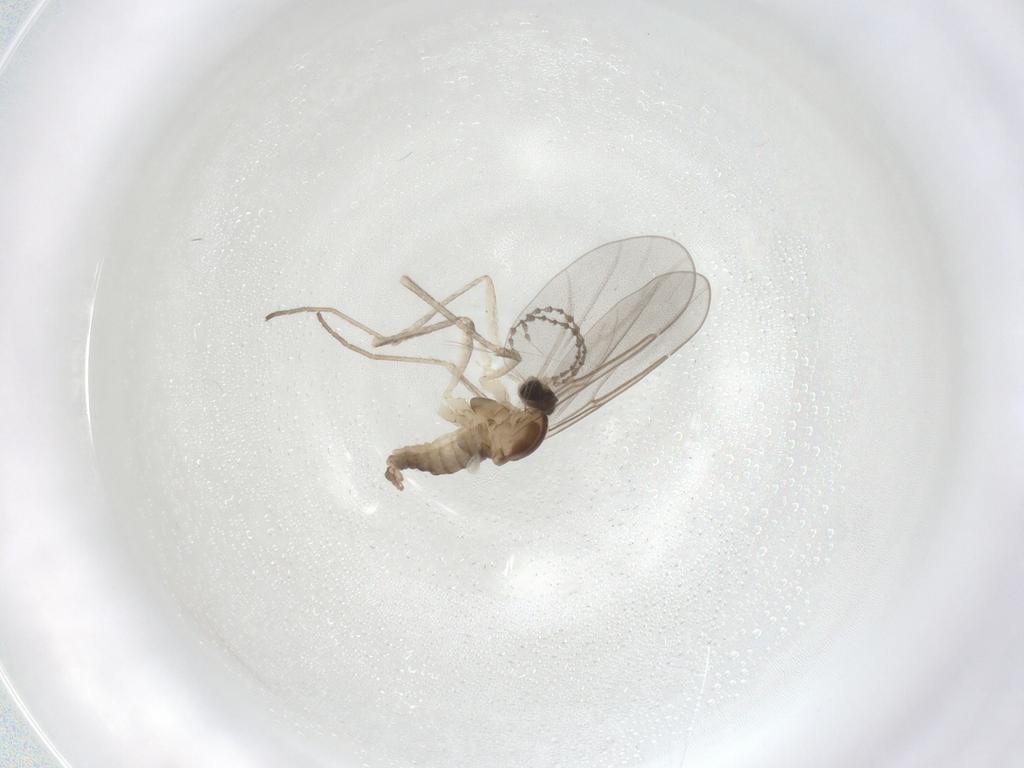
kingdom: Animalia
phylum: Arthropoda
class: Insecta
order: Diptera
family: Cecidomyiidae
